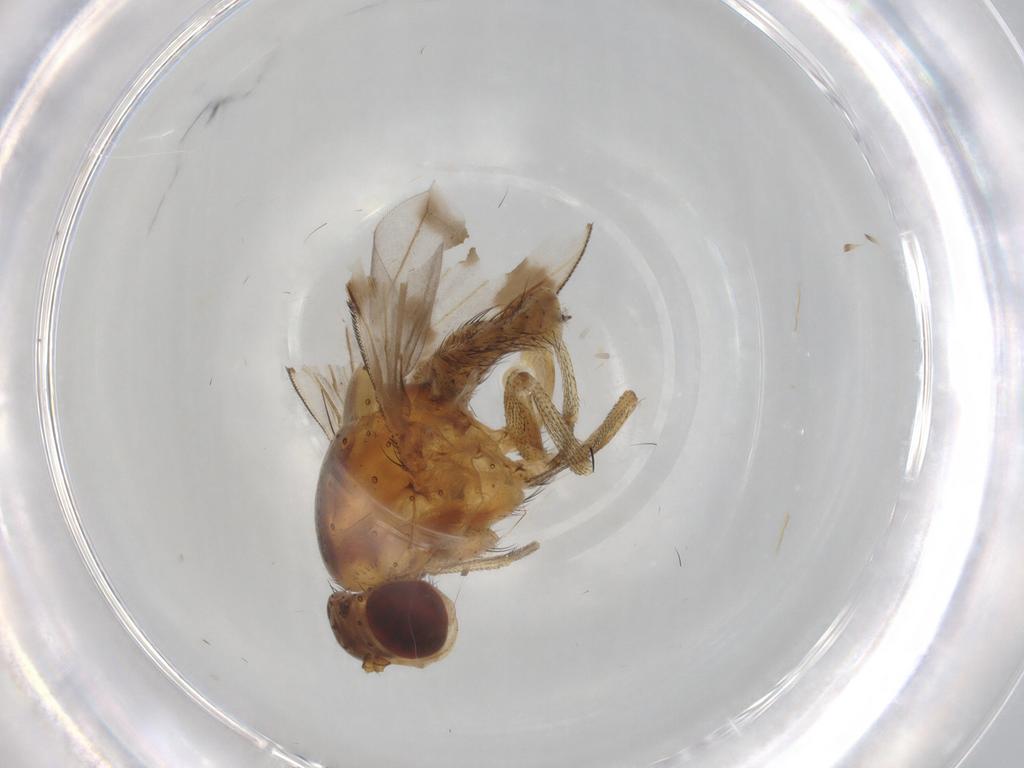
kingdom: Animalia
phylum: Arthropoda
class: Insecta
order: Diptera
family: Lauxaniidae
